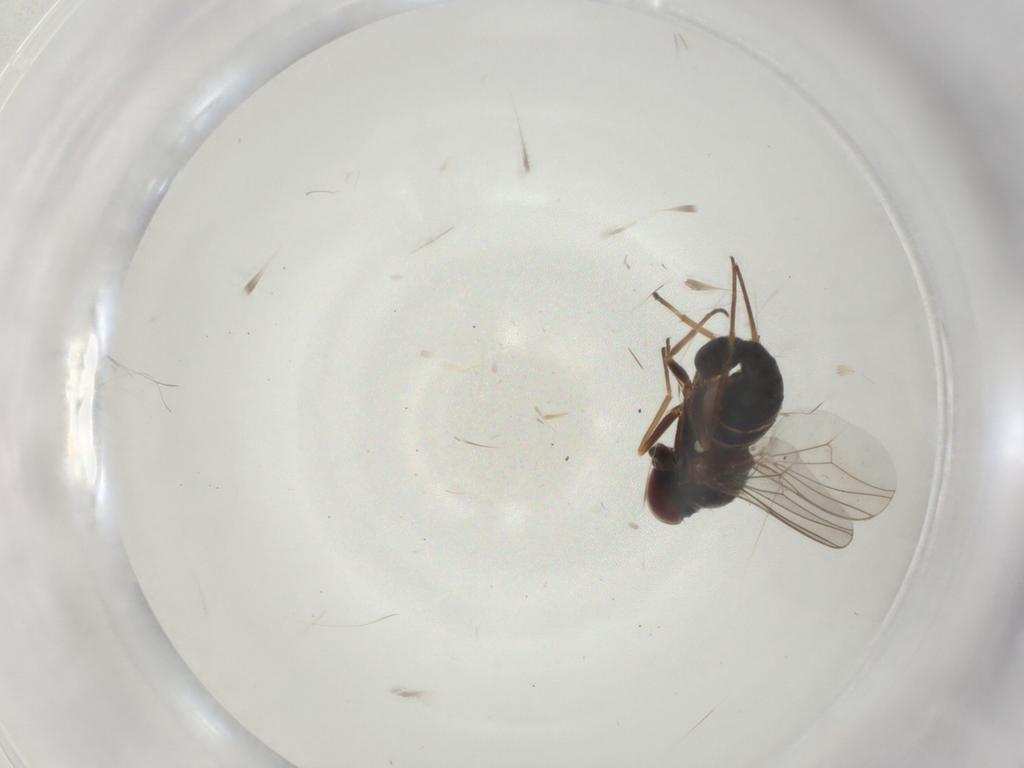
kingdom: Animalia
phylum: Arthropoda
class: Insecta
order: Diptera
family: Dolichopodidae
